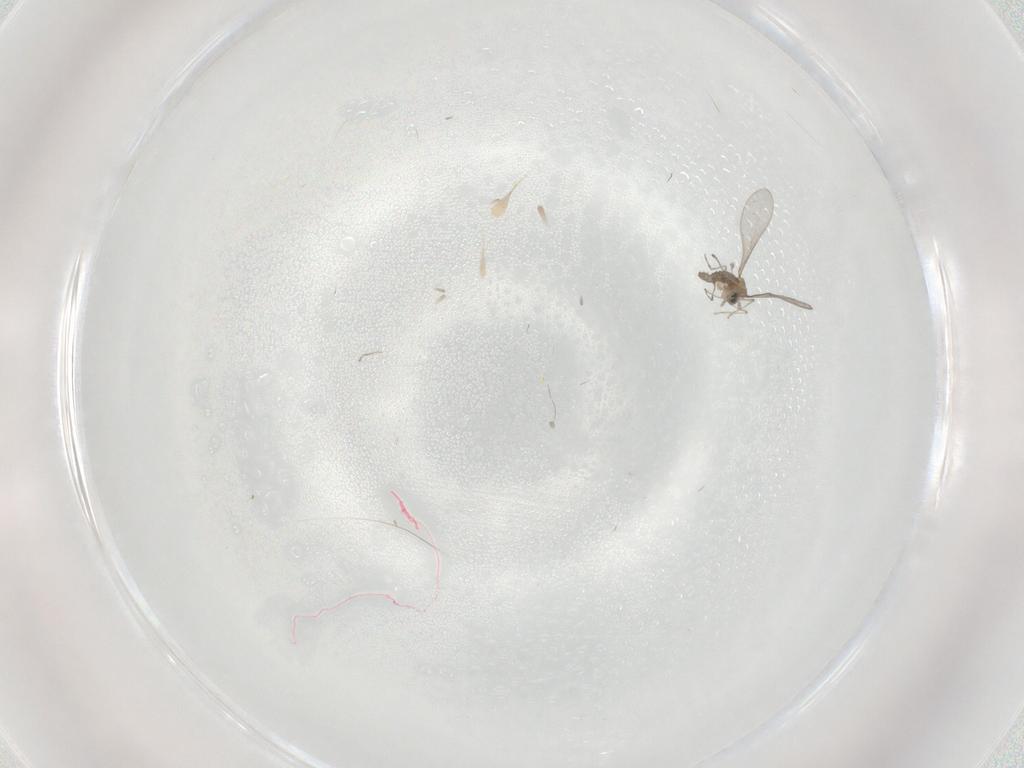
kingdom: Animalia
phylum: Arthropoda
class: Insecta
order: Diptera
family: Cecidomyiidae
